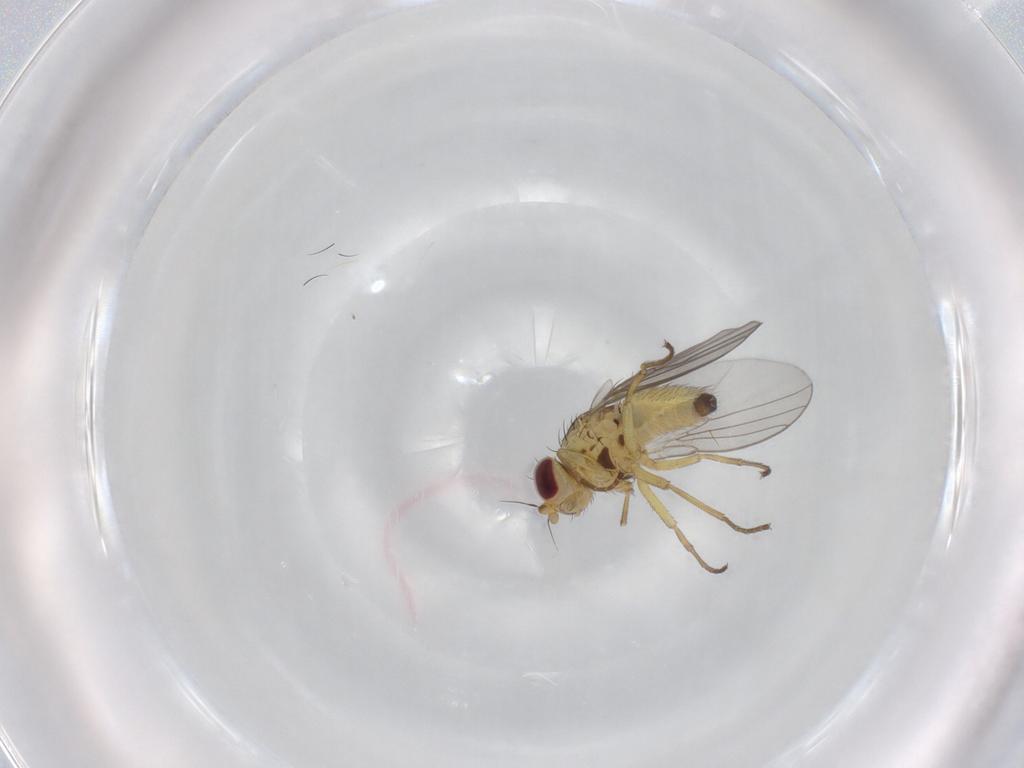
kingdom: Animalia
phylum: Arthropoda
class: Insecta
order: Diptera
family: Agromyzidae
